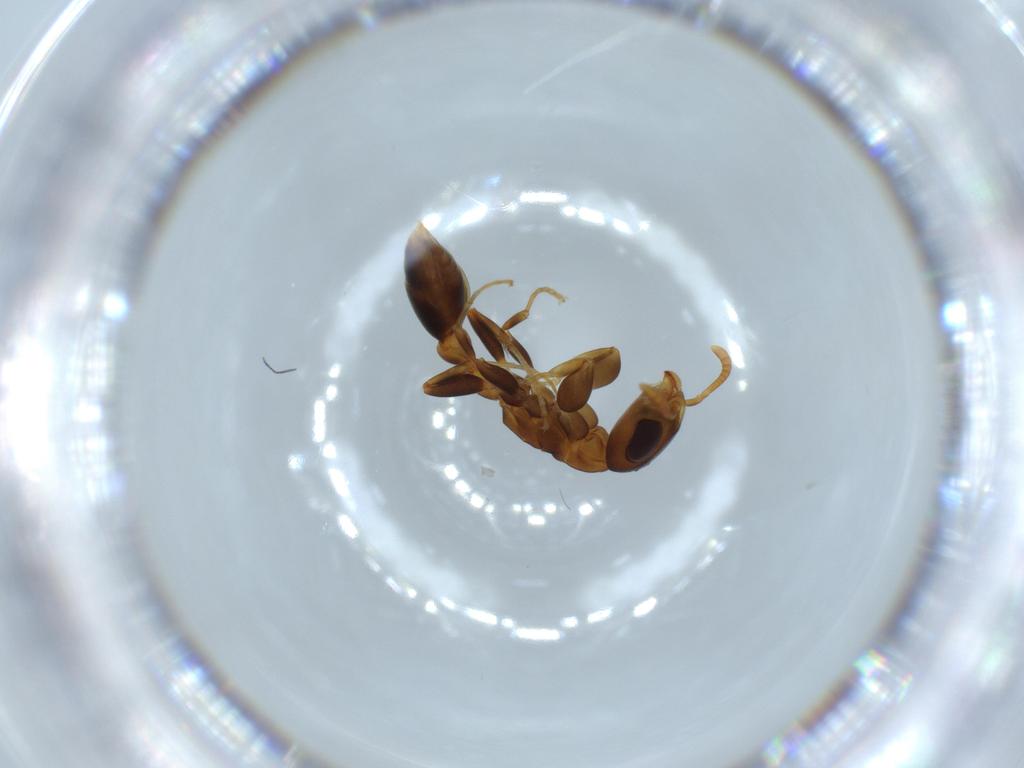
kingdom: Animalia
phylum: Arthropoda
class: Insecta
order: Hymenoptera
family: Formicidae
